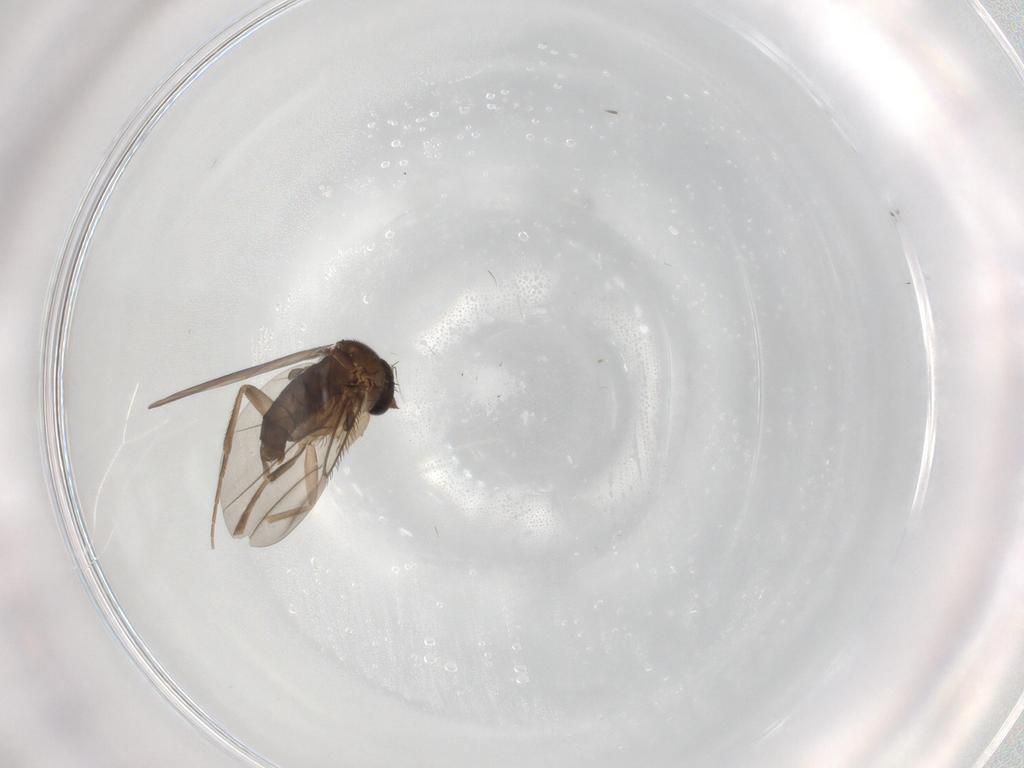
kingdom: Animalia
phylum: Arthropoda
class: Insecta
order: Diptera
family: Phoridae
